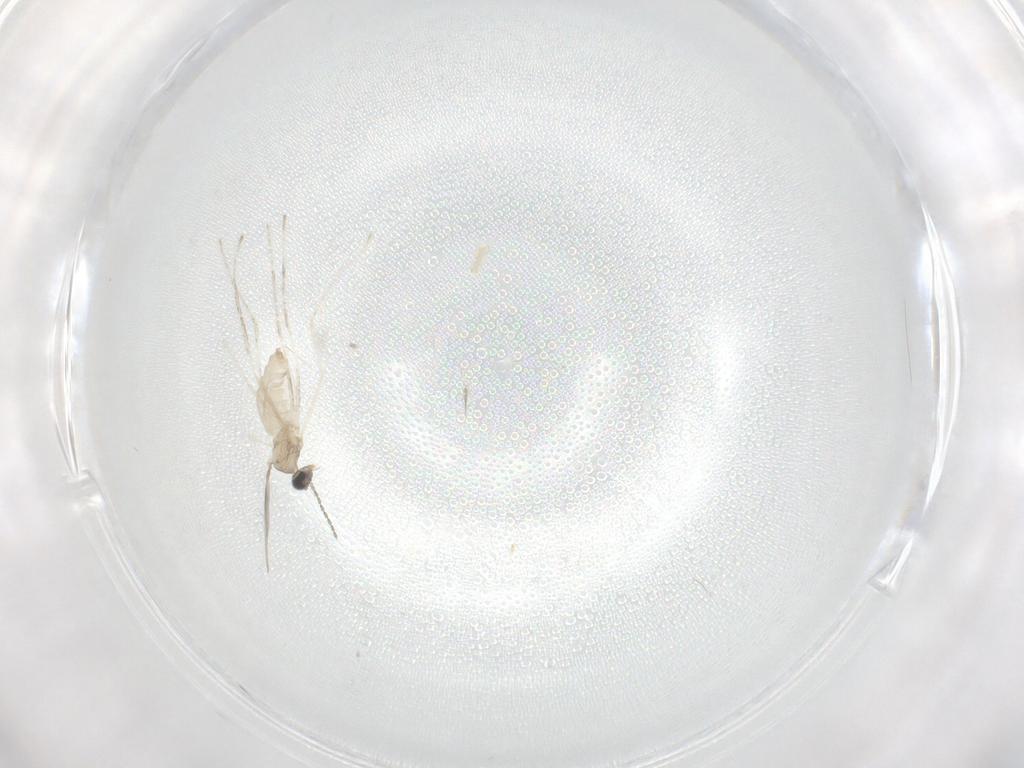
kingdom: Animalia
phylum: Arthropoda
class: Insecta
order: Diptera
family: Cecidomyiidae
